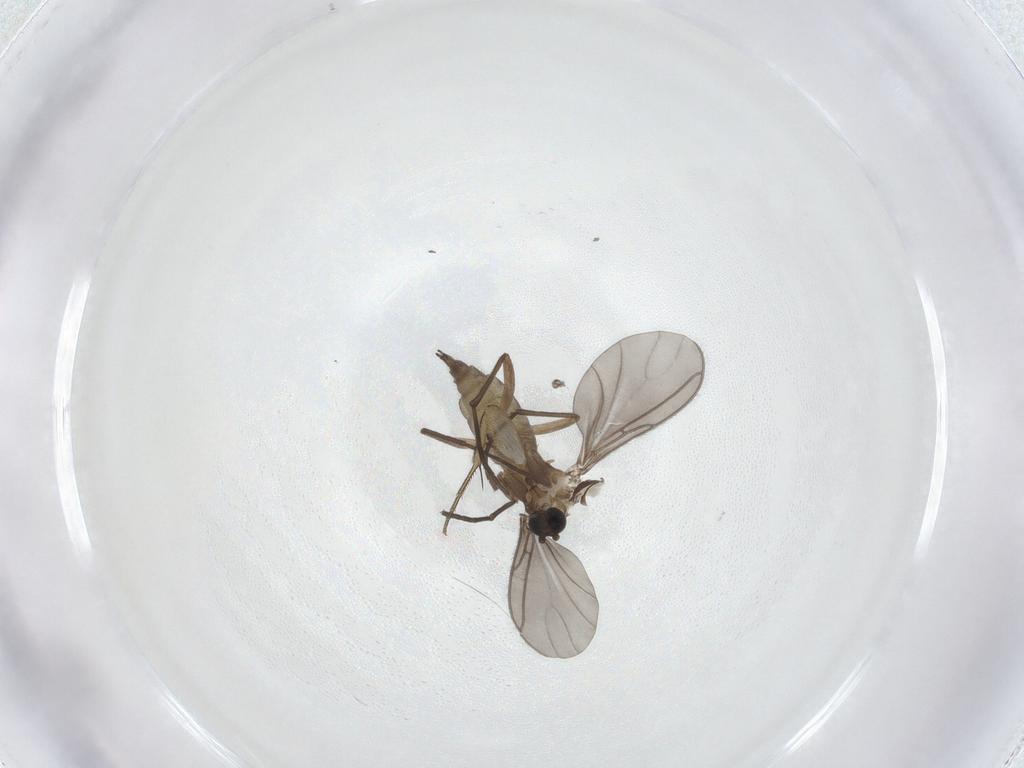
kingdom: Animalia
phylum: Arthropoda
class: Insecta
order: Diptera
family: Sciaridae
